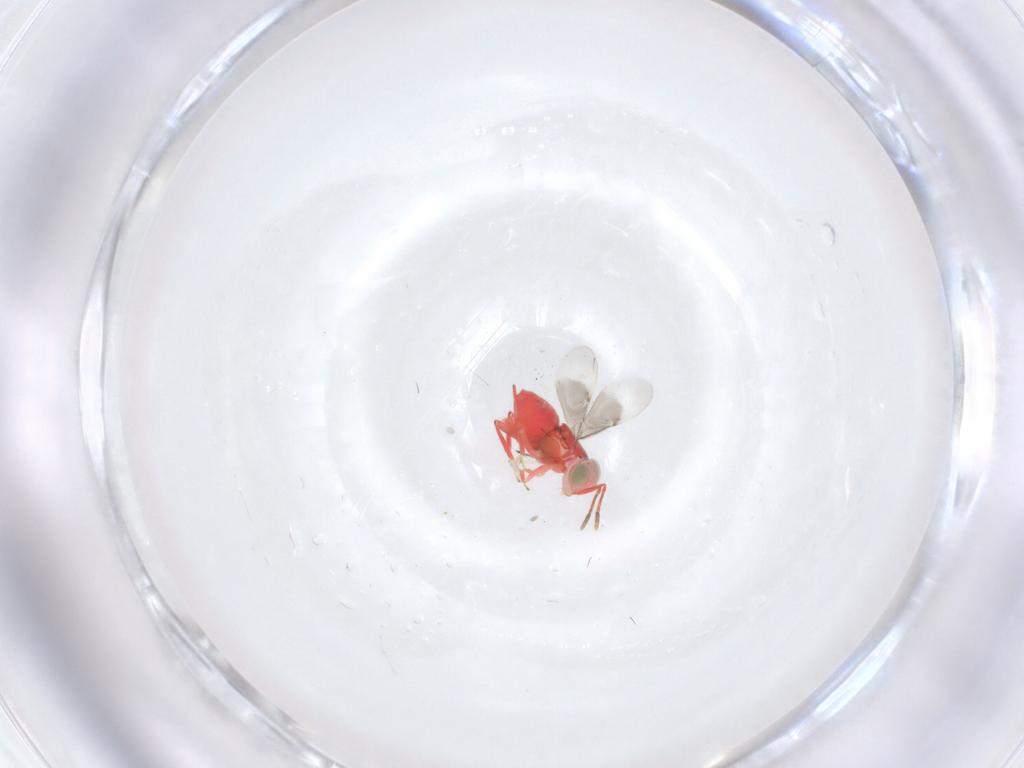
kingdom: Animalia
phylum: Arthropoda
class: Insecta
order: Hymenoptera
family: Encyrtidae
